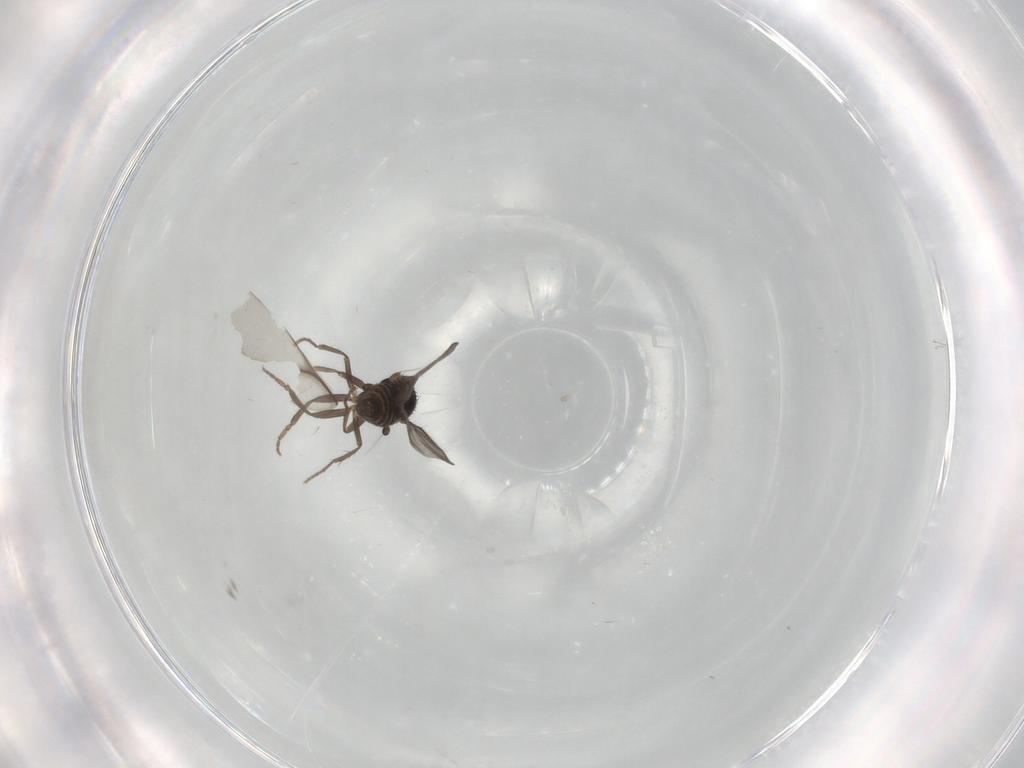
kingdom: Animalia
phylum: Arthropoda
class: Insecta
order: Diptera
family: Sphaeroceridae
